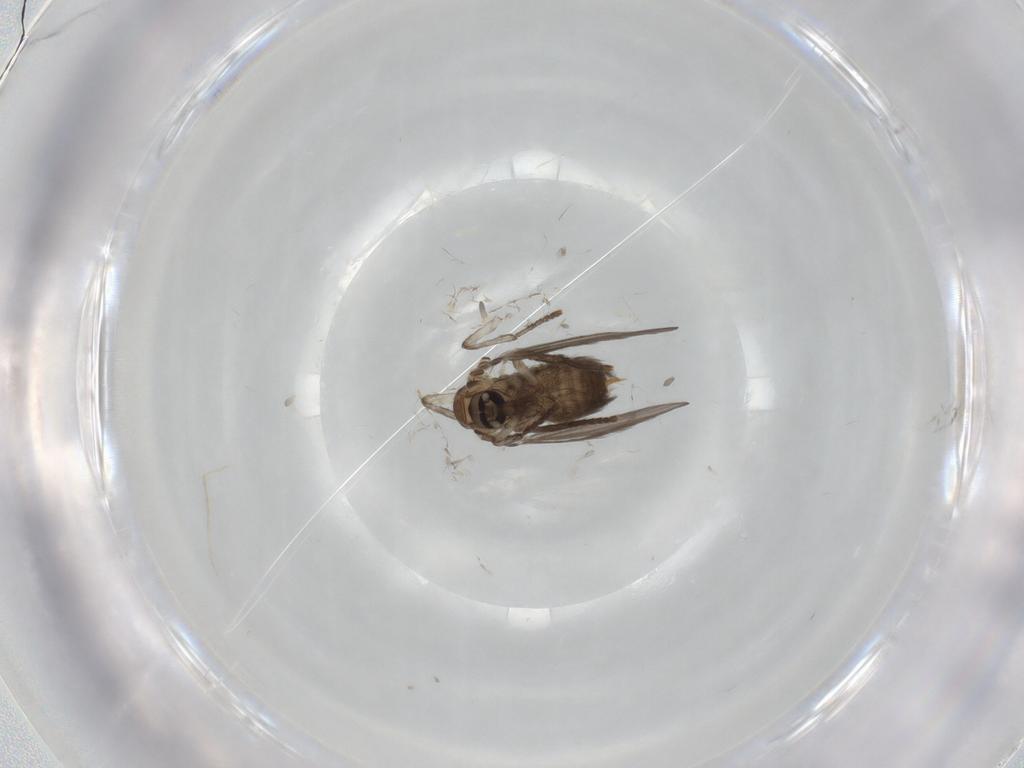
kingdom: Animalia
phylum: Arthropoda
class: Insecta
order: Diptera
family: Psychodidae
